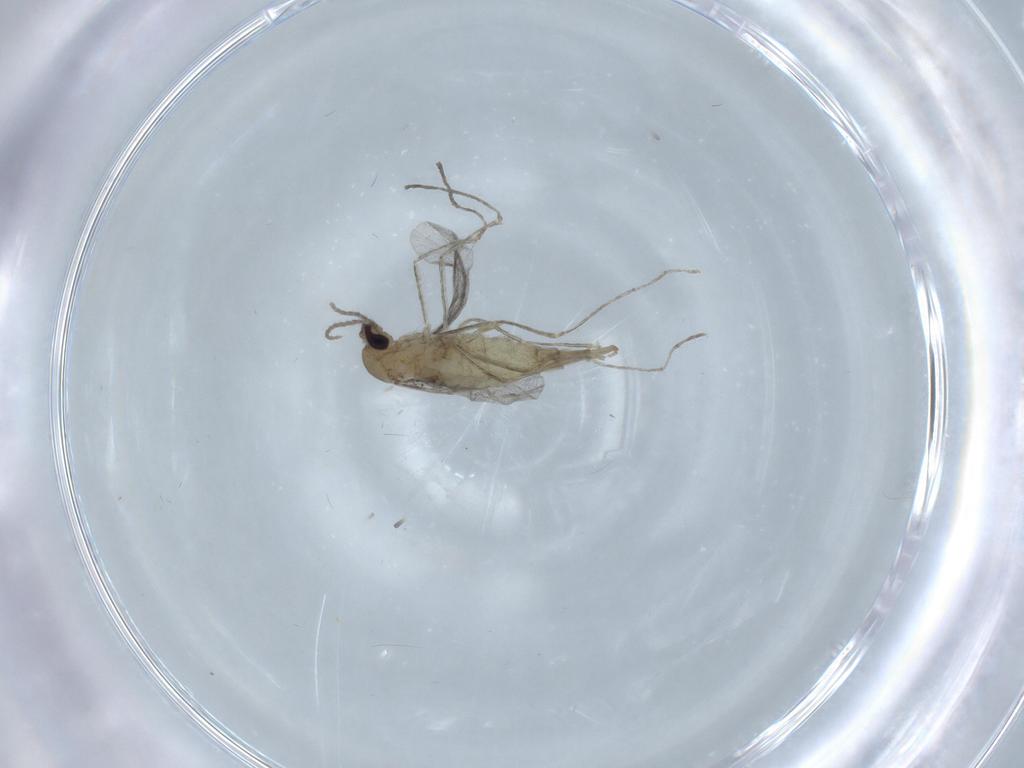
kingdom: Animalia
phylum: Arthropoda
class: Insecta
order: Diptera
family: Cecidomyiidae
